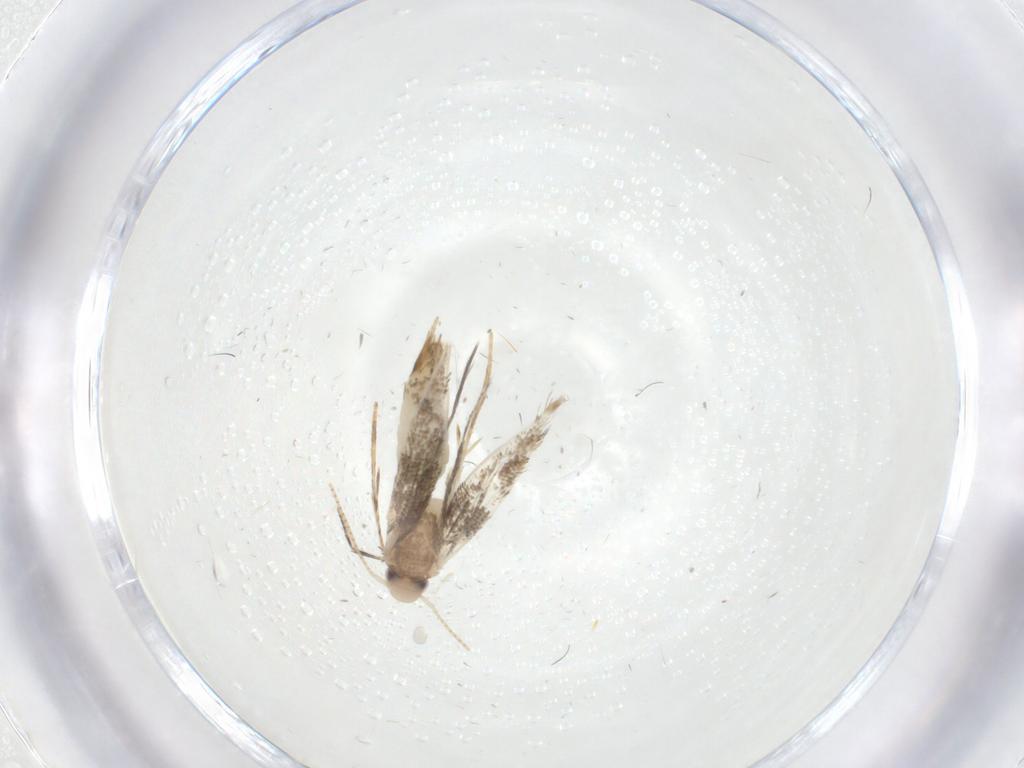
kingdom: Animalia
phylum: Arthropoda
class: Insecta
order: Lepidoptera
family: Gracillariidae
